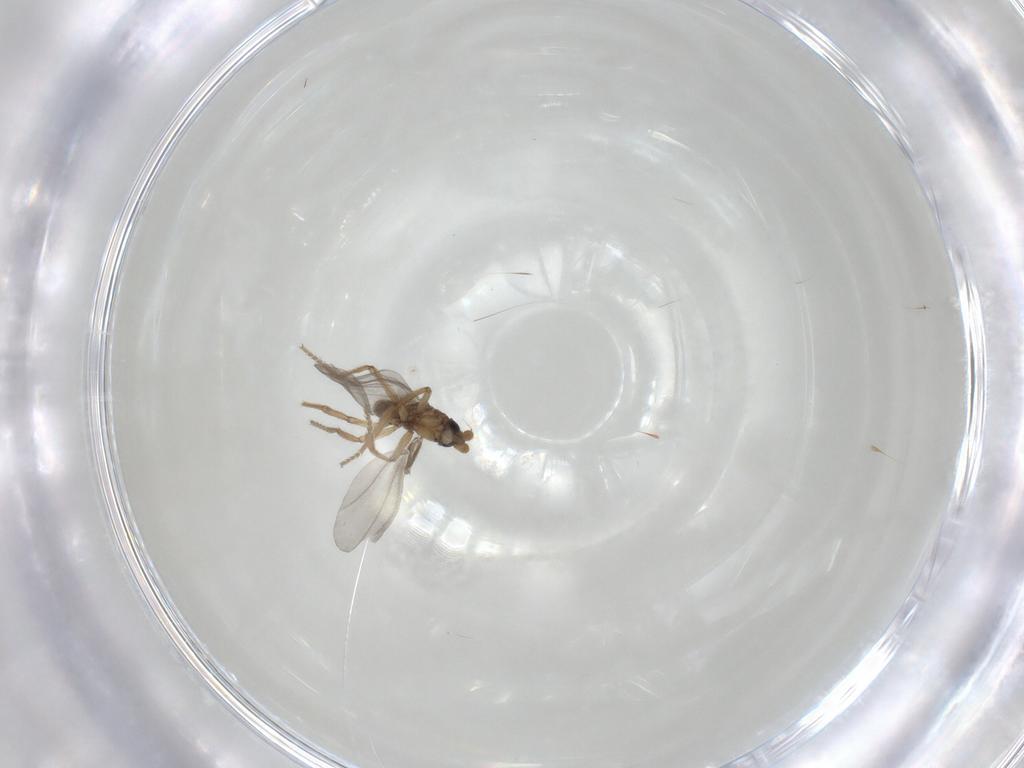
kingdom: Animalia
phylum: Arthropoda
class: Insecta
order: Diptera
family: Phoridae
